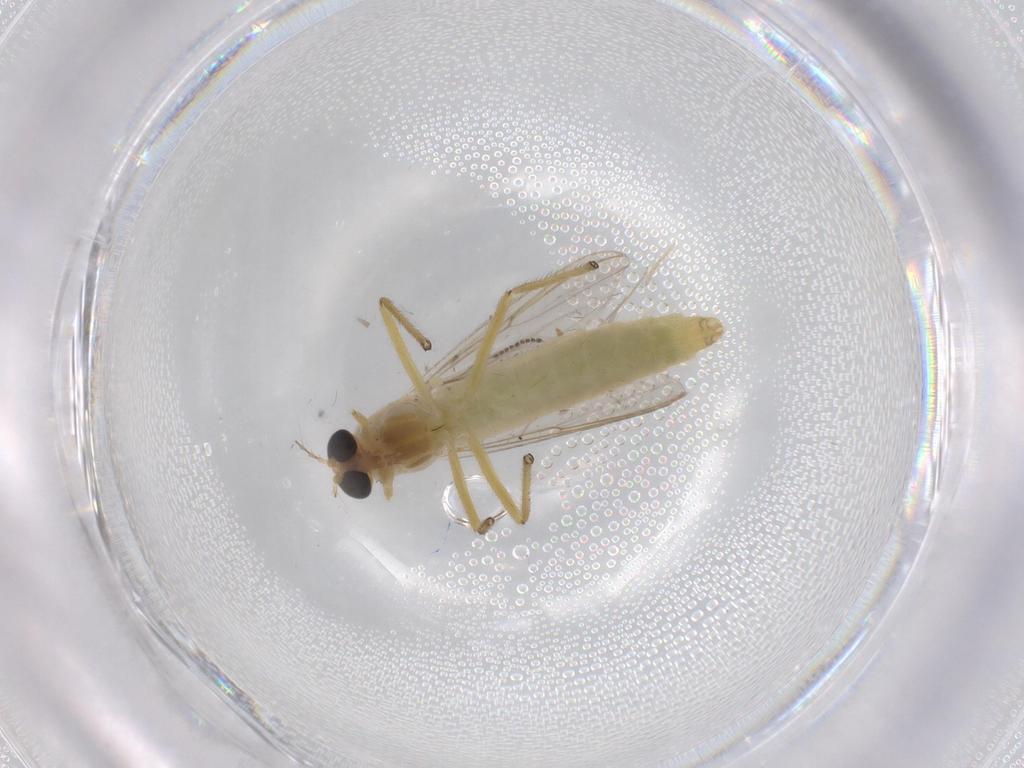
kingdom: Animalia
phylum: Arthropoda
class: Insecta
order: Diptera
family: Chironomidae
